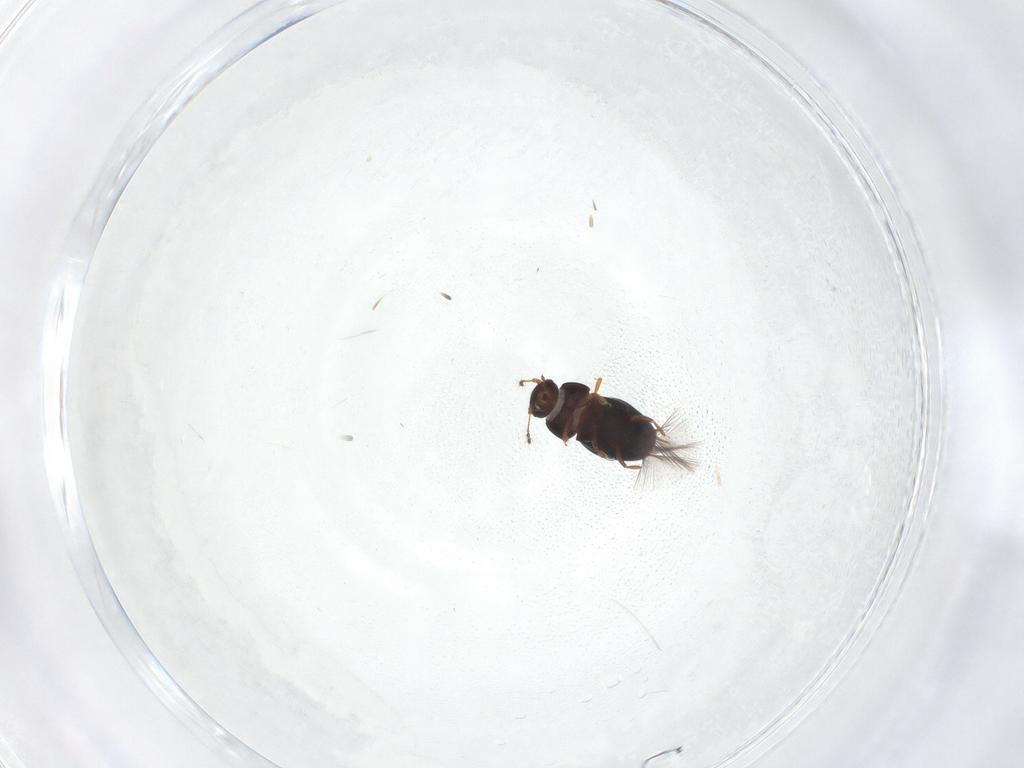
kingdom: Animalia
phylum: Arthropoda
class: Insecta
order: Coleoptera
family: Ptiliidae
